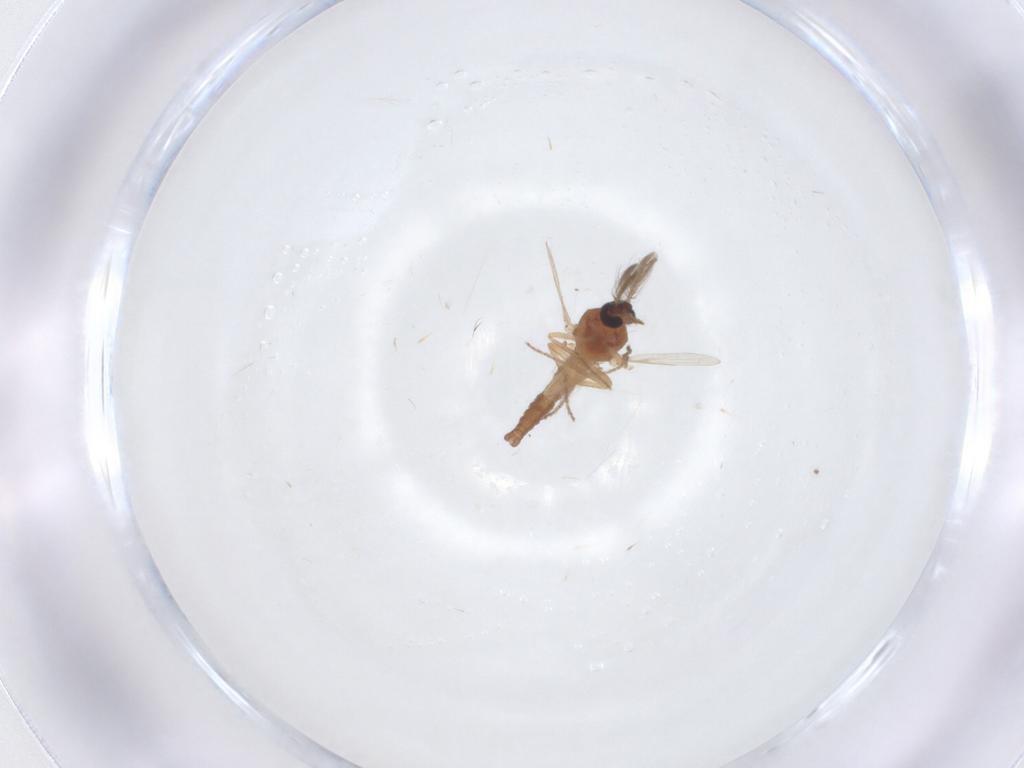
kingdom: Animalia
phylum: Arthropoda
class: Insecta
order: Diptera
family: Ceratopogonidae
